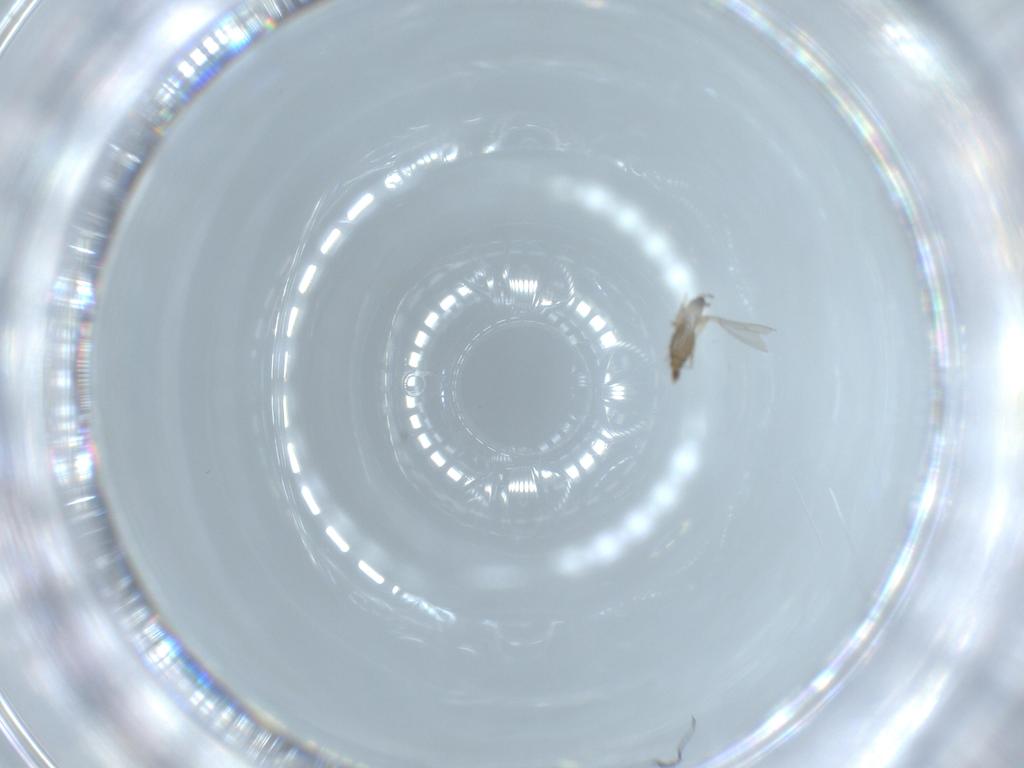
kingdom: Animalia
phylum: Arthropoda
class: Insecta
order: Diptera
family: Cecidomyiidae
